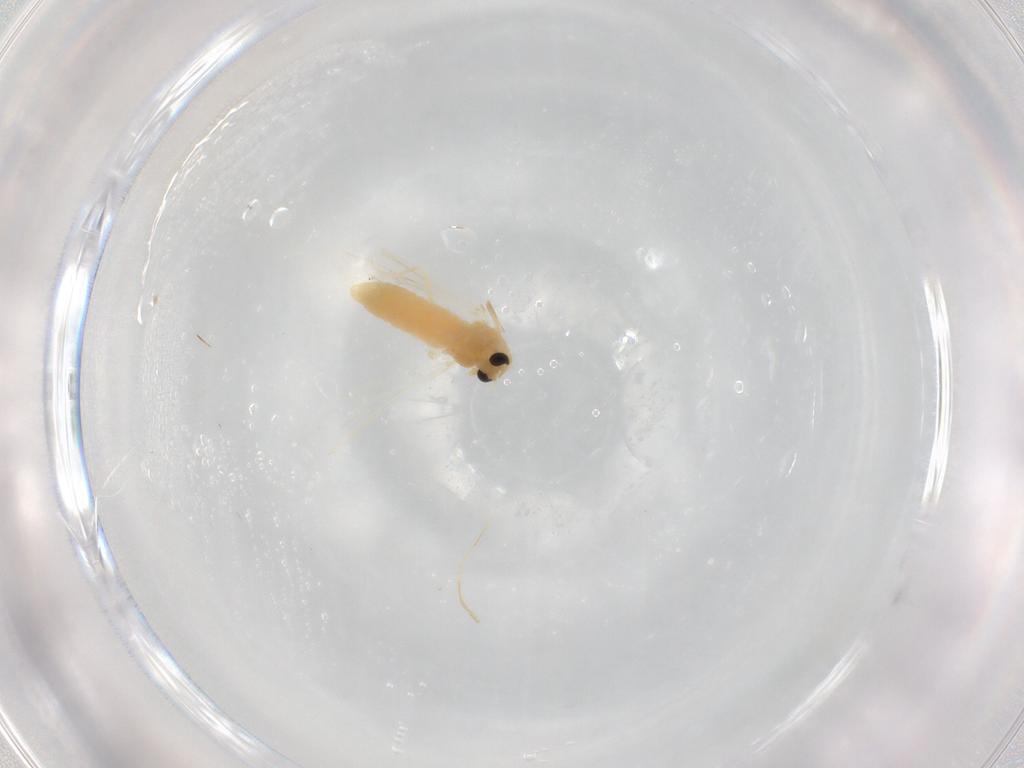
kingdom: Animalia
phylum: Arthropoda
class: Insecta
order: Diptera
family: Chironomidae
